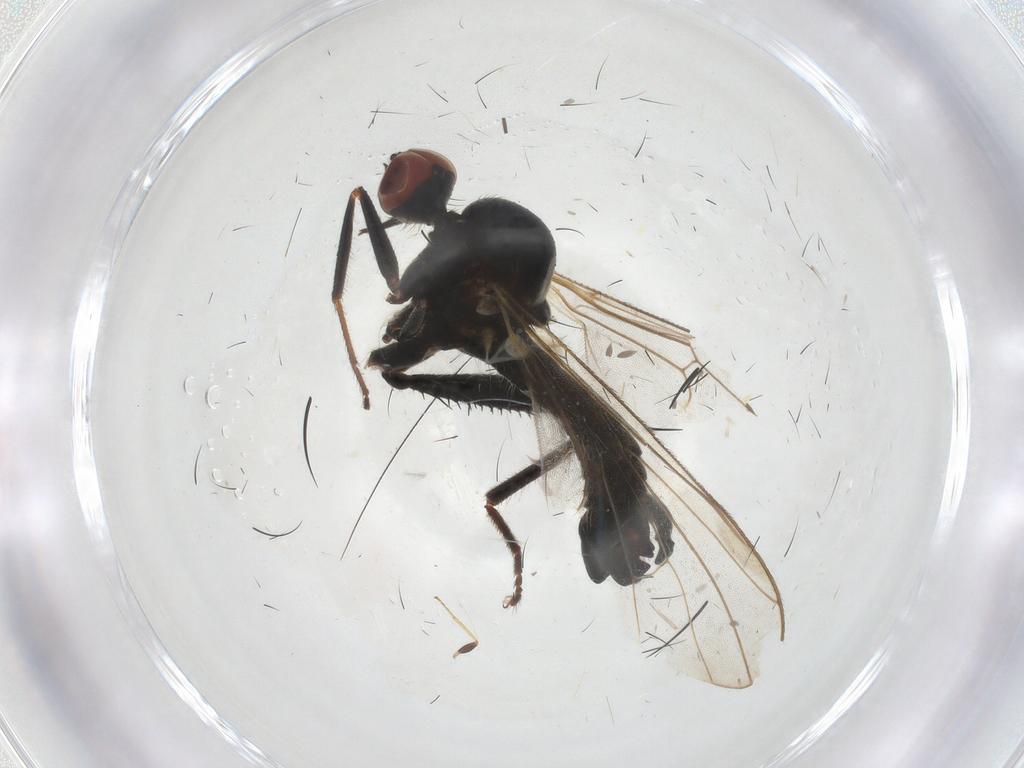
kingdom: Animalia
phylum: Arthropoda
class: Insecta
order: Diptera
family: Hybotidae
